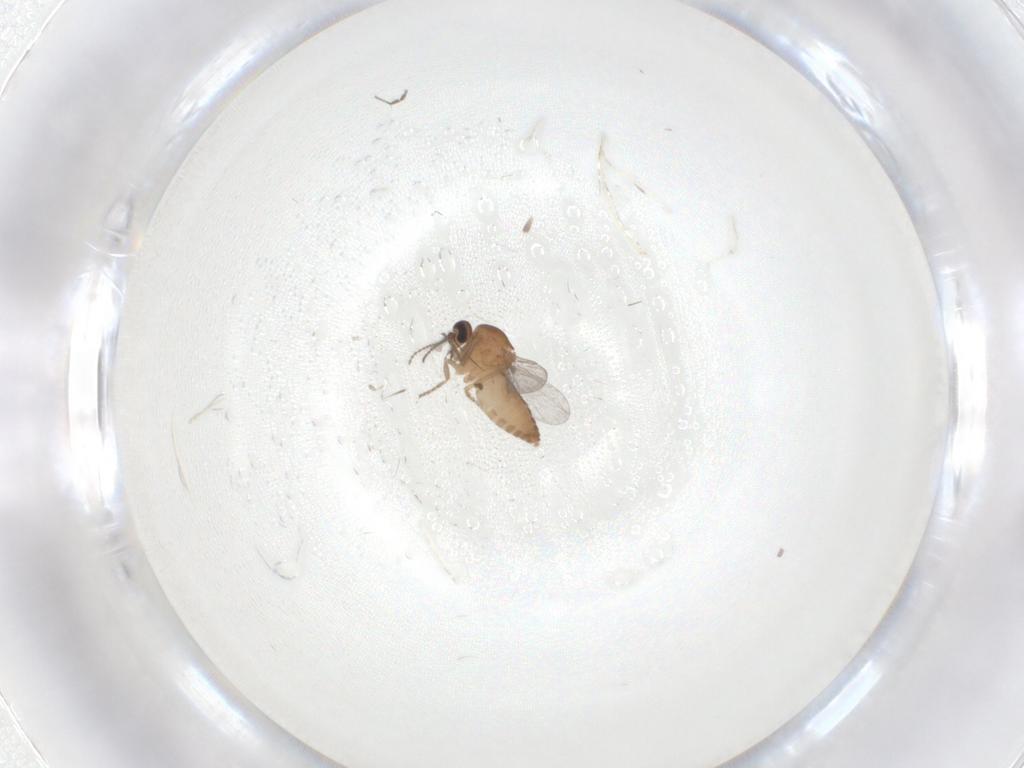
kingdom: Animalia
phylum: Arthropoda
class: Insecta
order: Diptera
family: Ceratopogonidae
